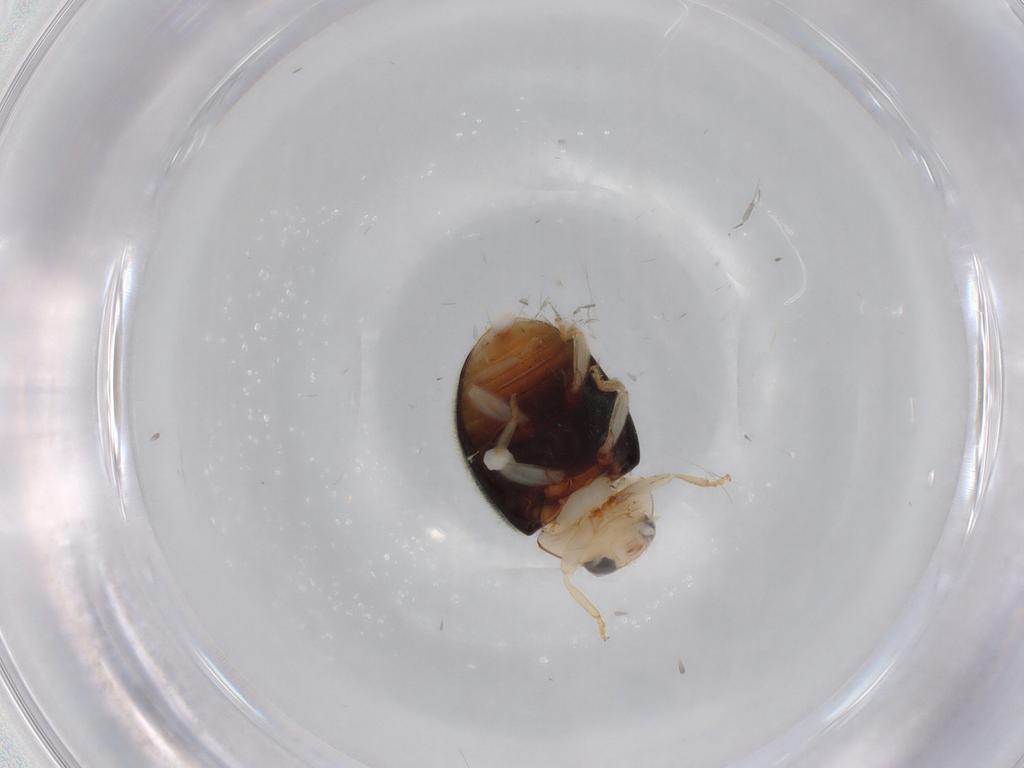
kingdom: Animalia
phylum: Arthropoda
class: Insecta
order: Coleoptera
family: Coccinellidae
